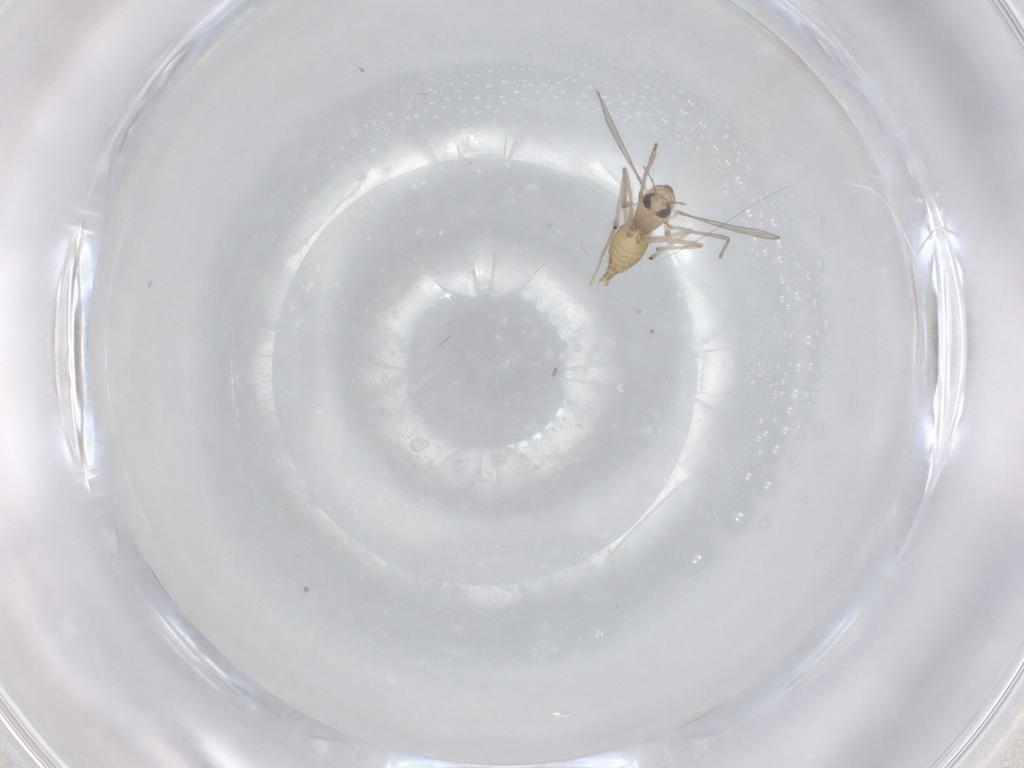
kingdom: Animalia
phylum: Arthropoda
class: Insecta
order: Diptera
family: Chironomidae
